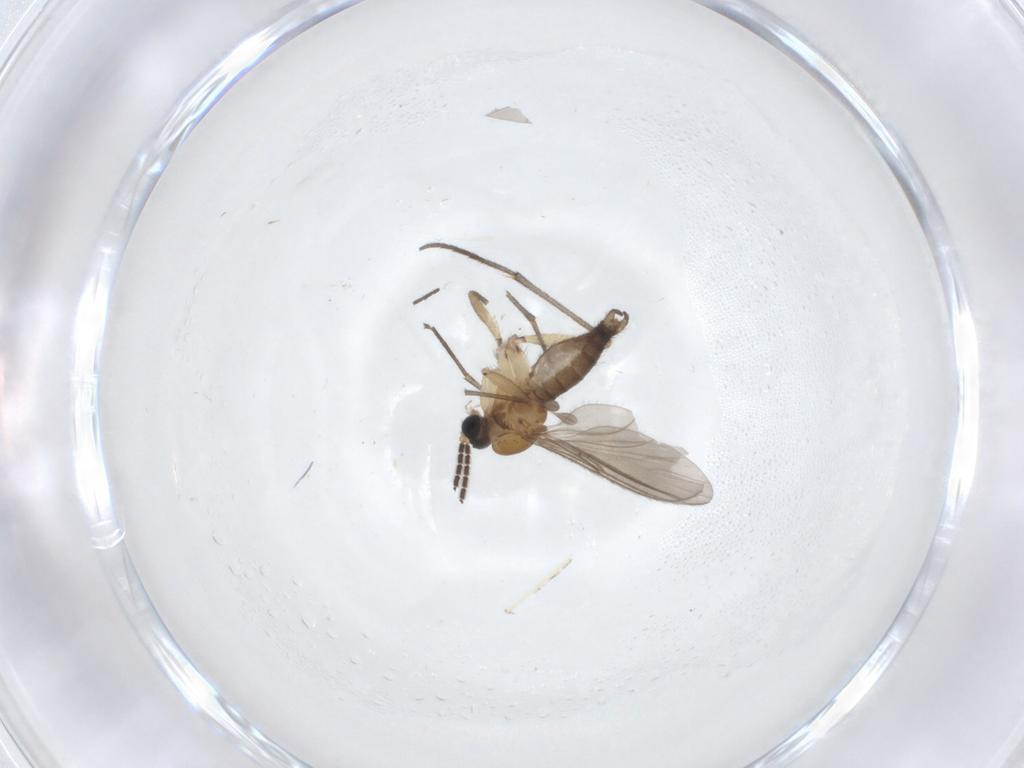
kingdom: Animalia
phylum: Arthropoda
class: Insecta
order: Diptera
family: Sciaridae
